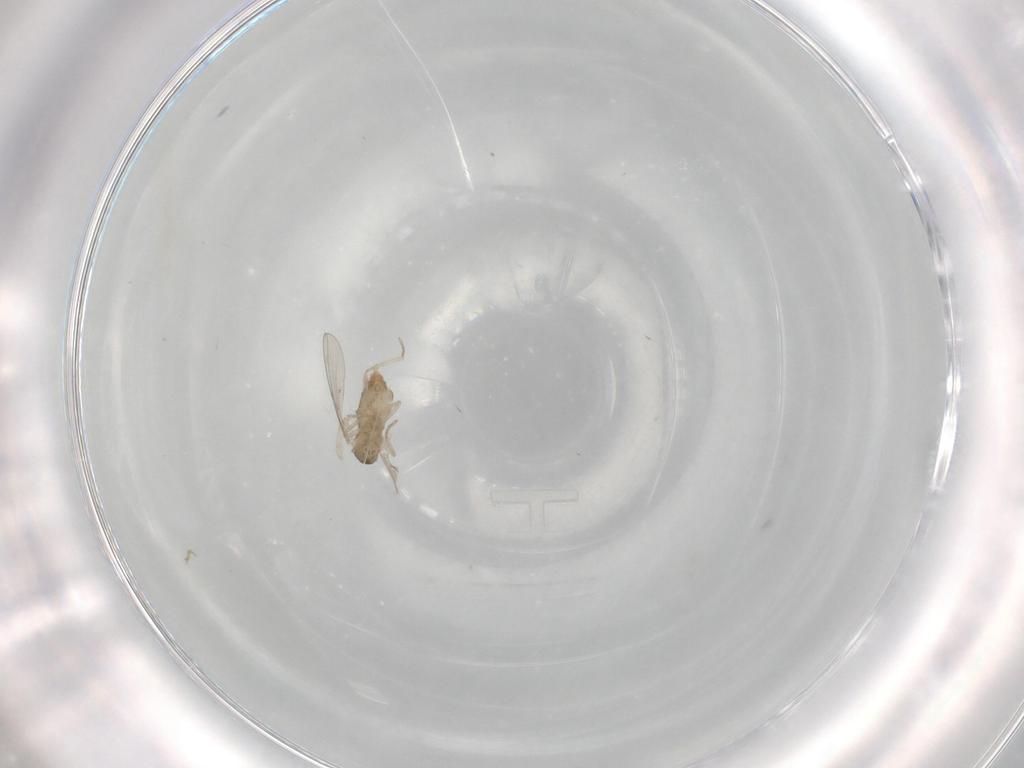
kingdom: Animalia
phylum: Arthropoda
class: Insecta
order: Diptera
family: Cecidomyiidae
